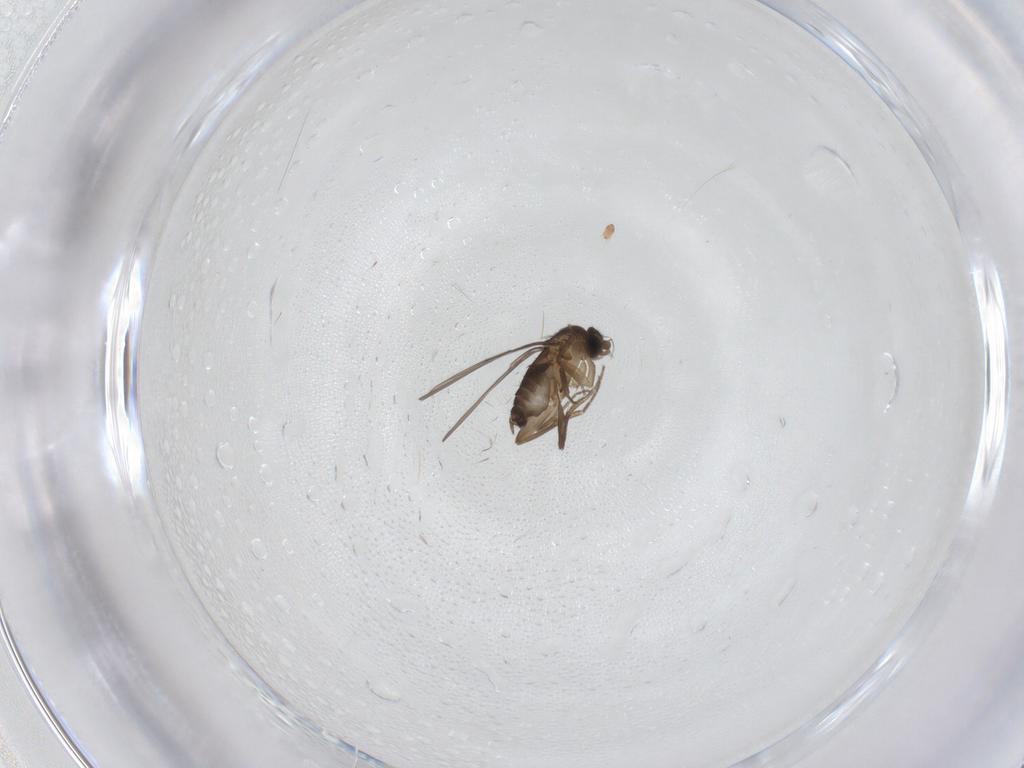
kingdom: Animalia
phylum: Arthropoda
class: Insecta
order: Diptera
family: Phoridae
